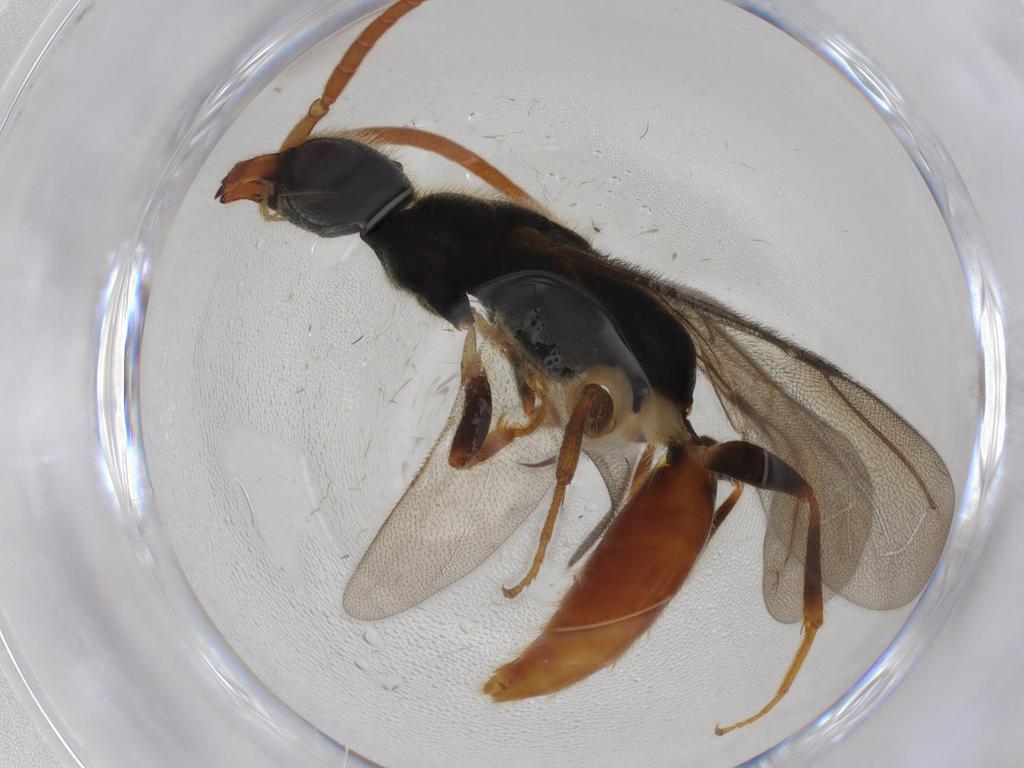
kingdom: Animalia
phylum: Arthropoda
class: Insecta
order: Hymenoptera
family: Bethylidae
